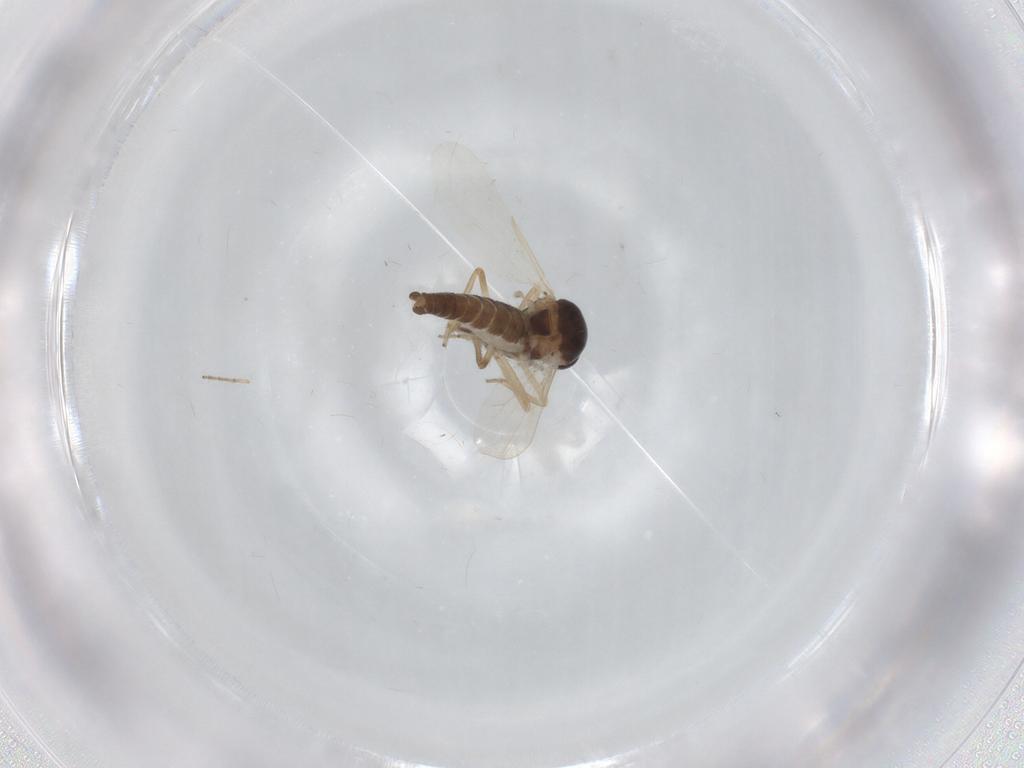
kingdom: Animalia
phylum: Arthropoda
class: Insecta
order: Diptera
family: Ceratopogonidae
